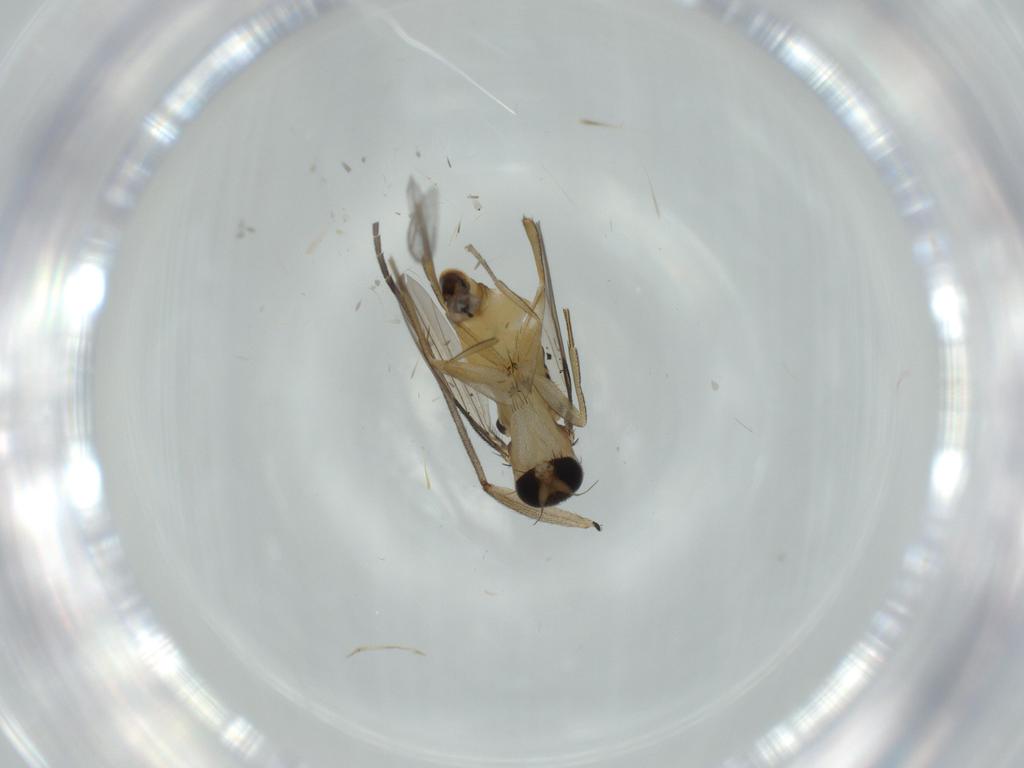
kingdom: Animalia
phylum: Arthropoda
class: Insecta
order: Diptera
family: Phoridae
